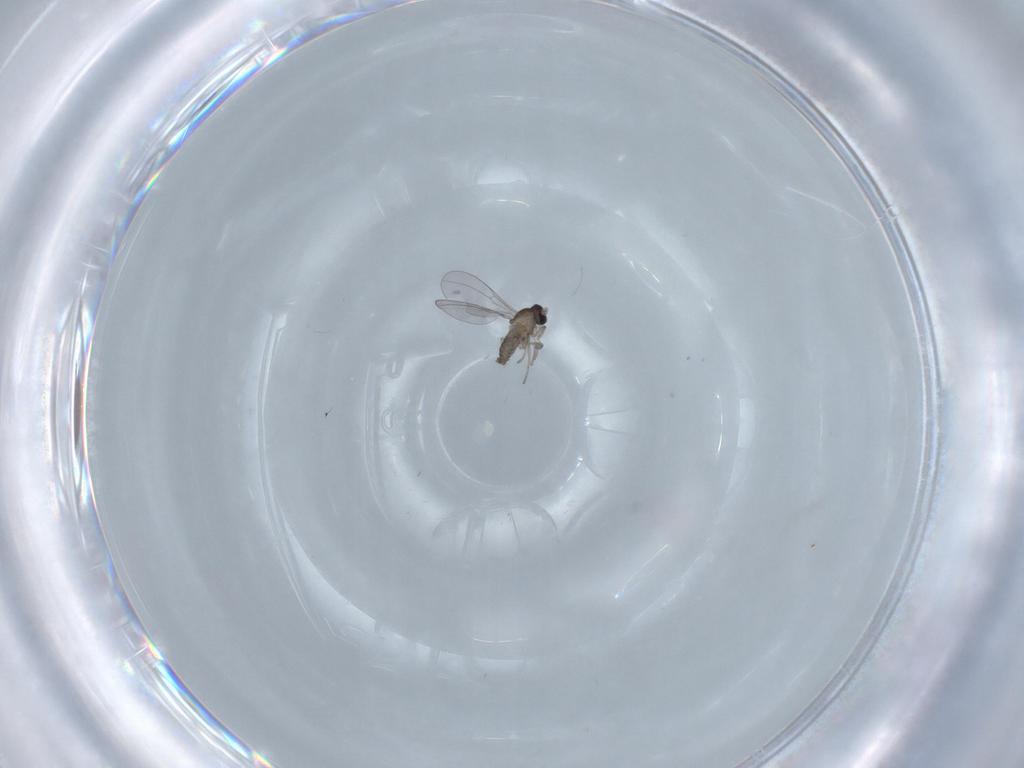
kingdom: Animalia
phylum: Arthropoda
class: Insecta
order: Diptera
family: Cecidomyiidae
